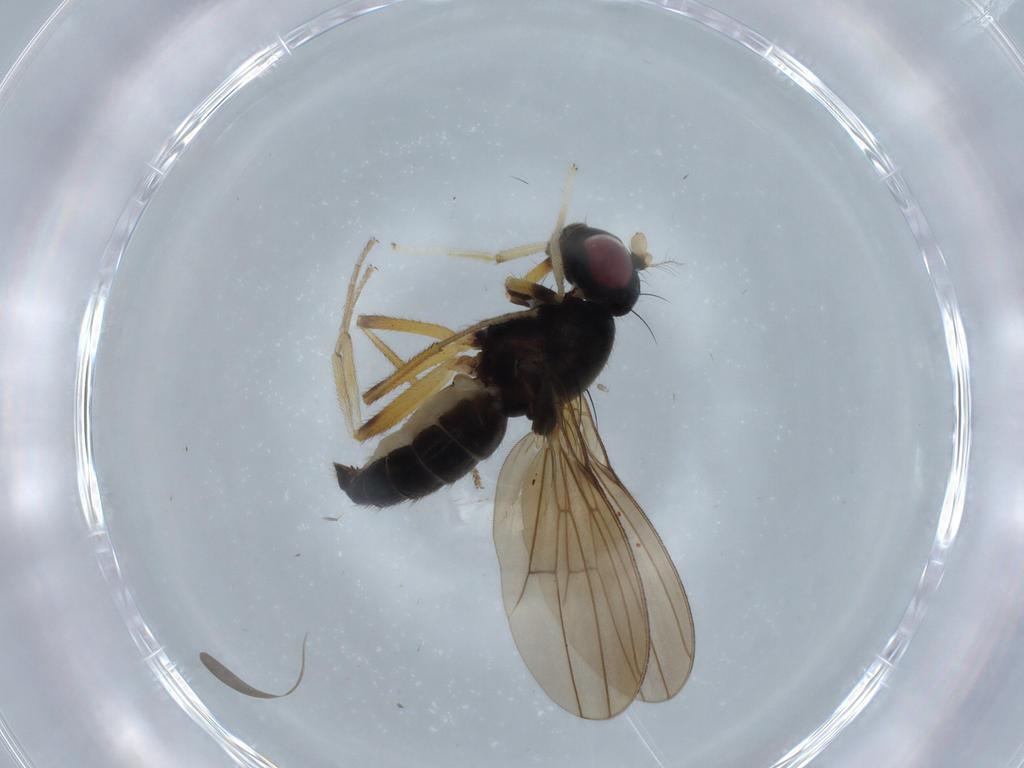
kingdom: Animalia
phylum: Arthropoda
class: Insecta
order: Diptera
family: Lauxaniidae
